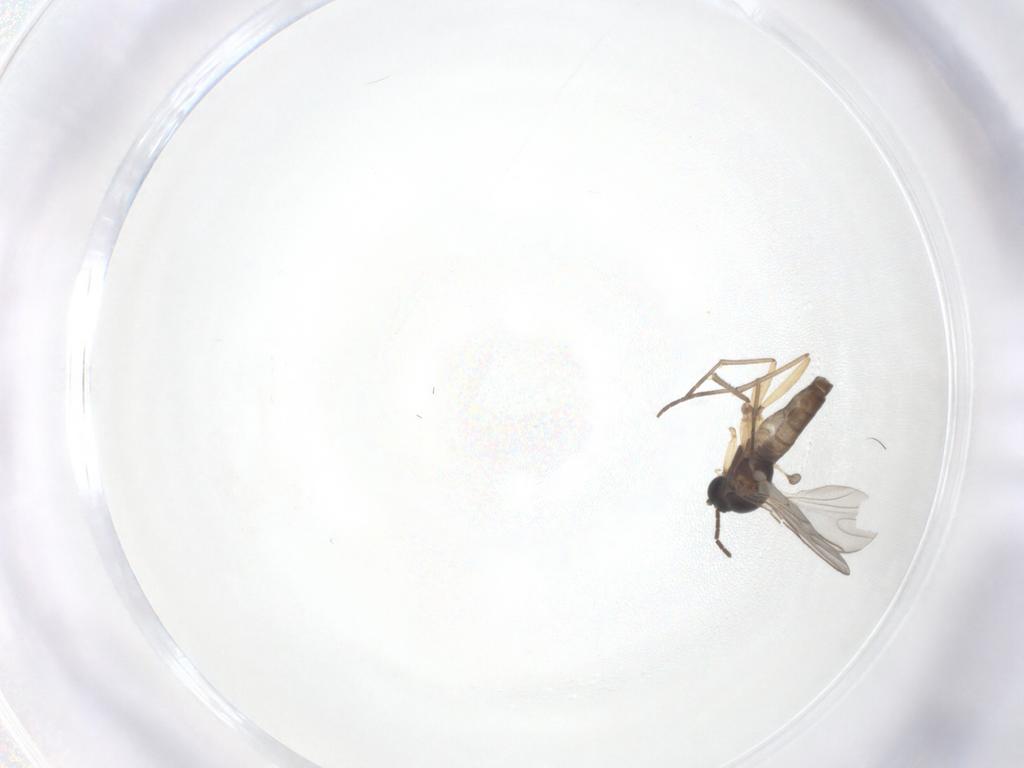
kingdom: Animalia
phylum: Arthropoda
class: Insecta
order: Diptera
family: Sciaridae
